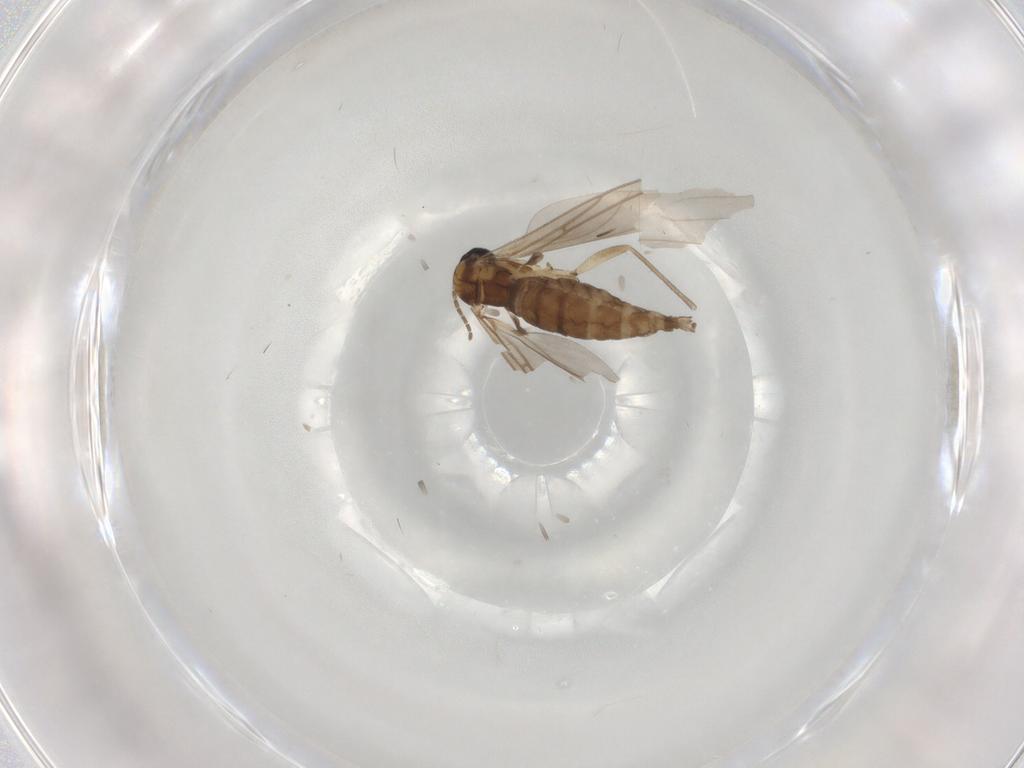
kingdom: Animalia
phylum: Arthropoda
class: Insecta
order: Diptera
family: Sciaridae
